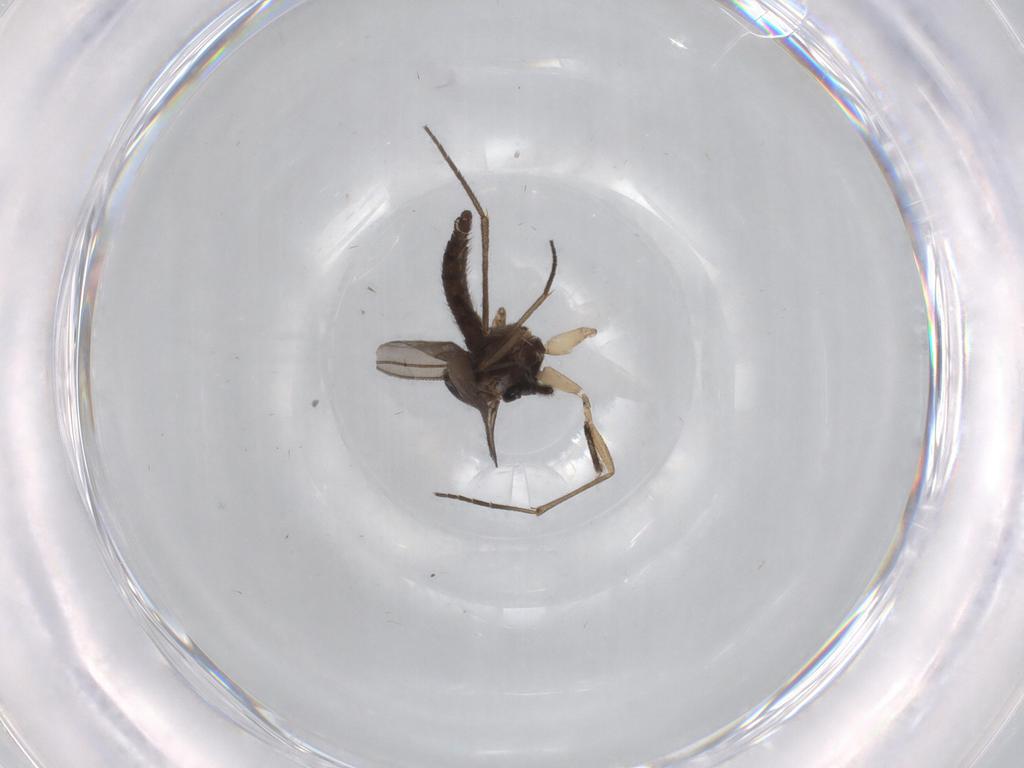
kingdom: Animalia
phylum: Arthropoda
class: Insecta
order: Diptera
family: Sciaridae
